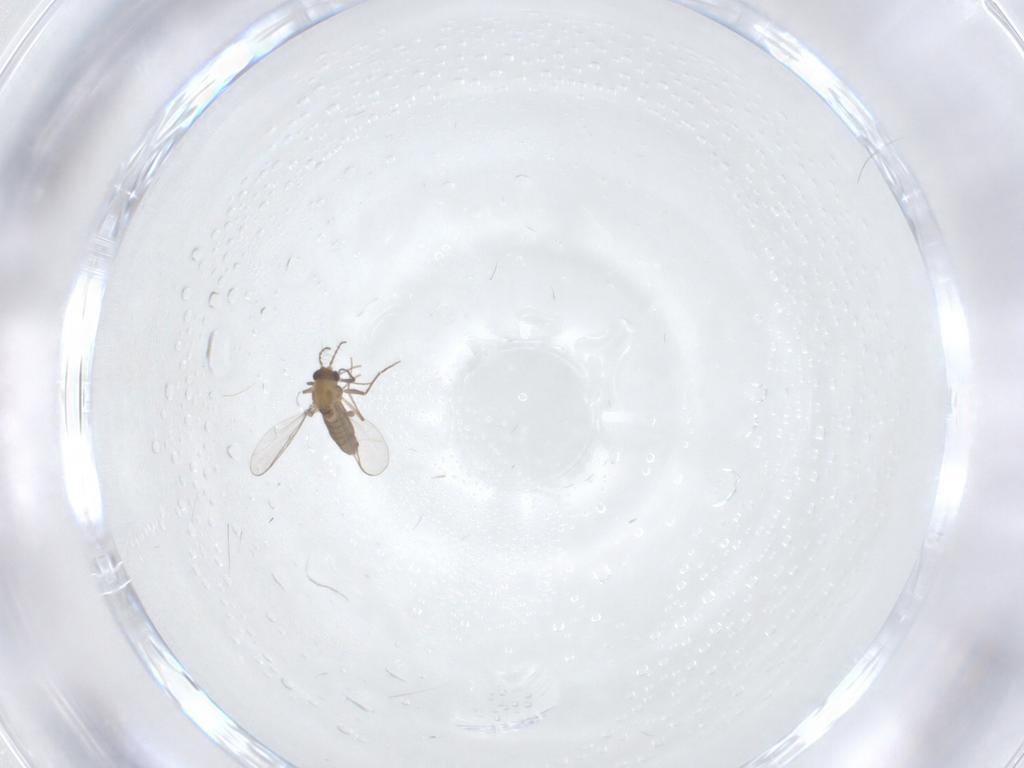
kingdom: Animalia
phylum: Arthropoda
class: Insecta
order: Diptera
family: Chironomidae
